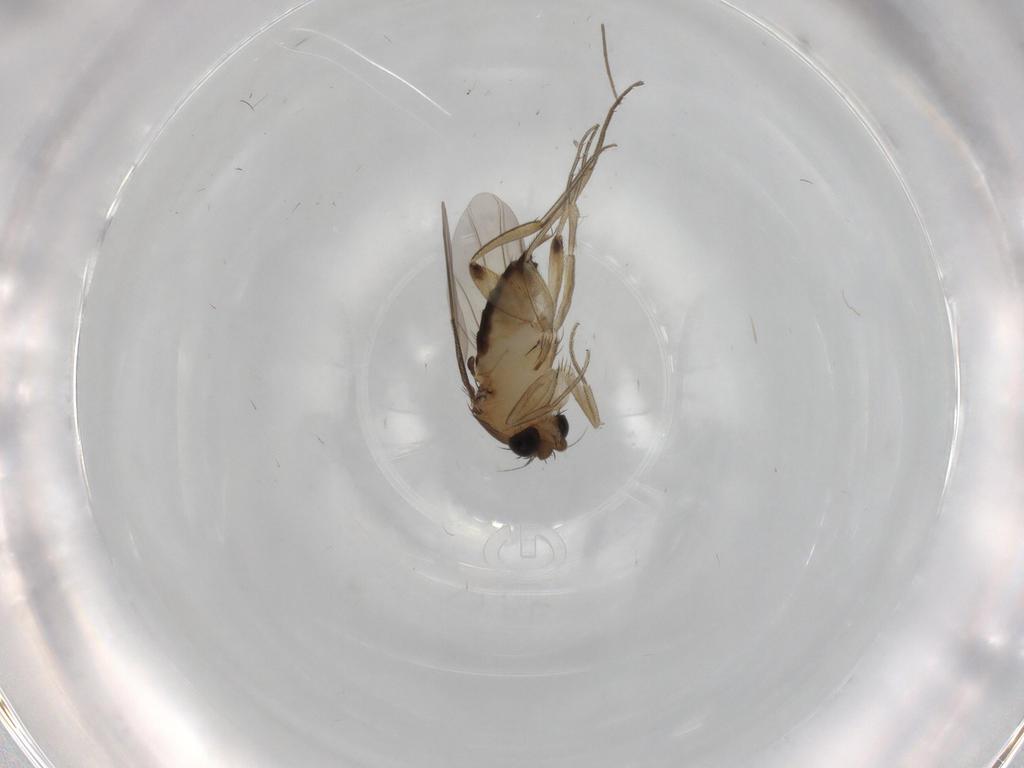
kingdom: Animalia
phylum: Arthropoda
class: Insecta
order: Diptera
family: Phoridae
